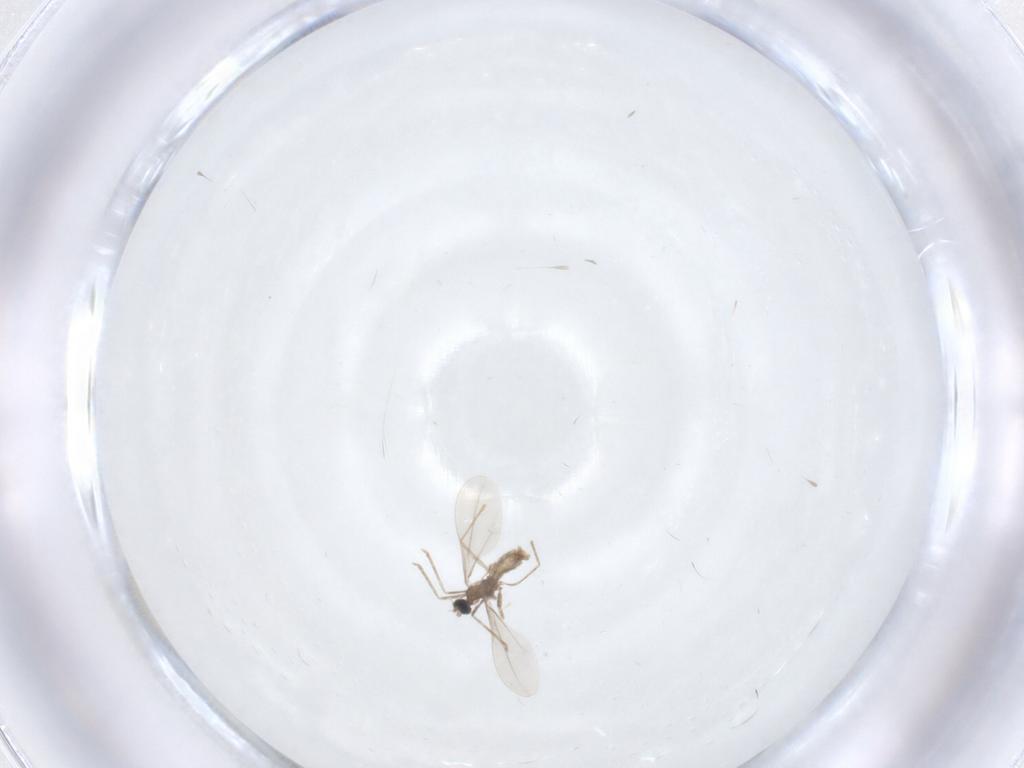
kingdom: Animalia
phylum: Arthropoda
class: Insecta
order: Diptera
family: Cecidomyiidae
